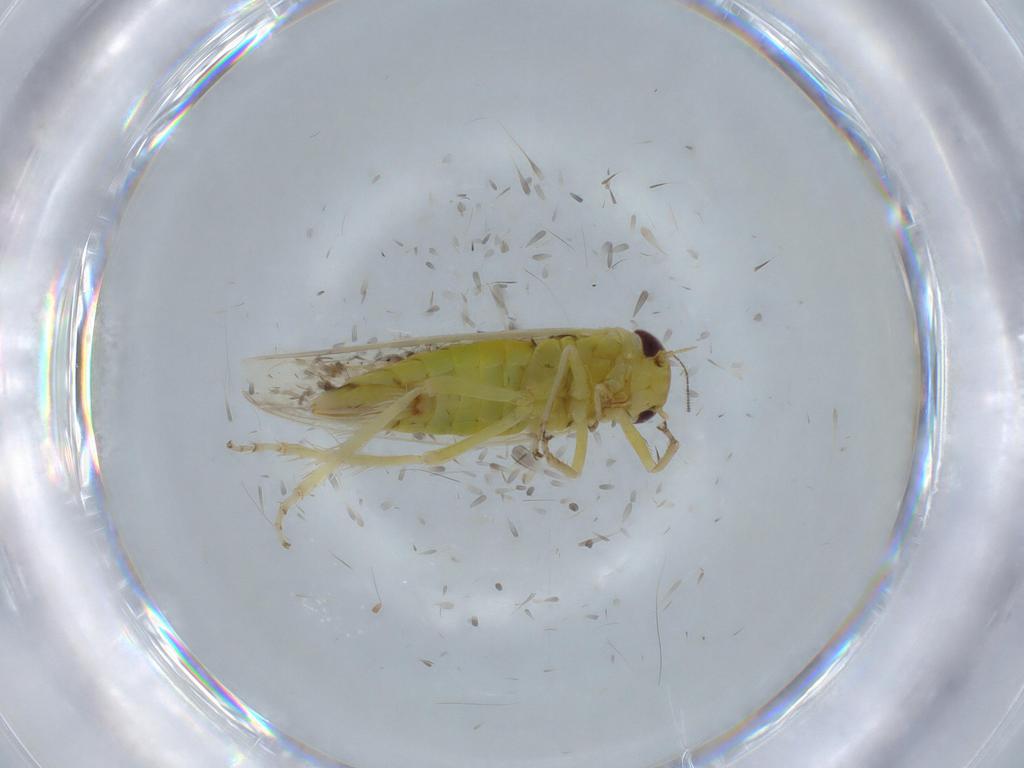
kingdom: Animalia
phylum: Arthropoda
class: Insecta
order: Hemiptera
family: Cicadellidae
